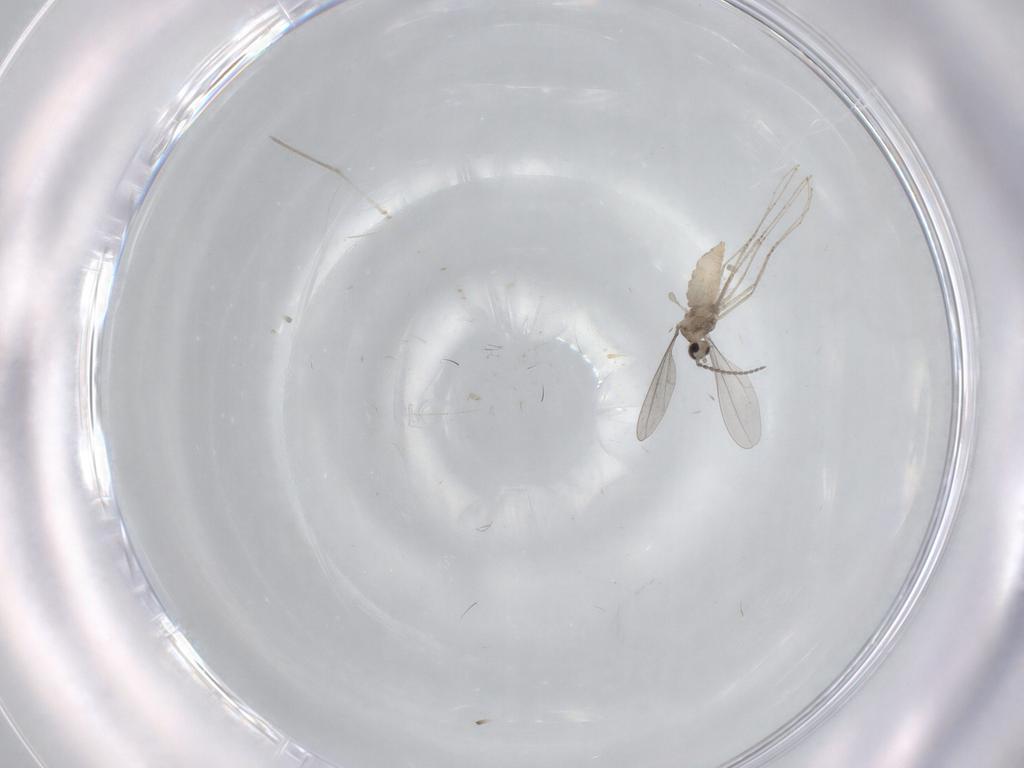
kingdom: Animalia
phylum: Arthropoda
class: Insecta
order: Diptera
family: Cecidomyiidae
